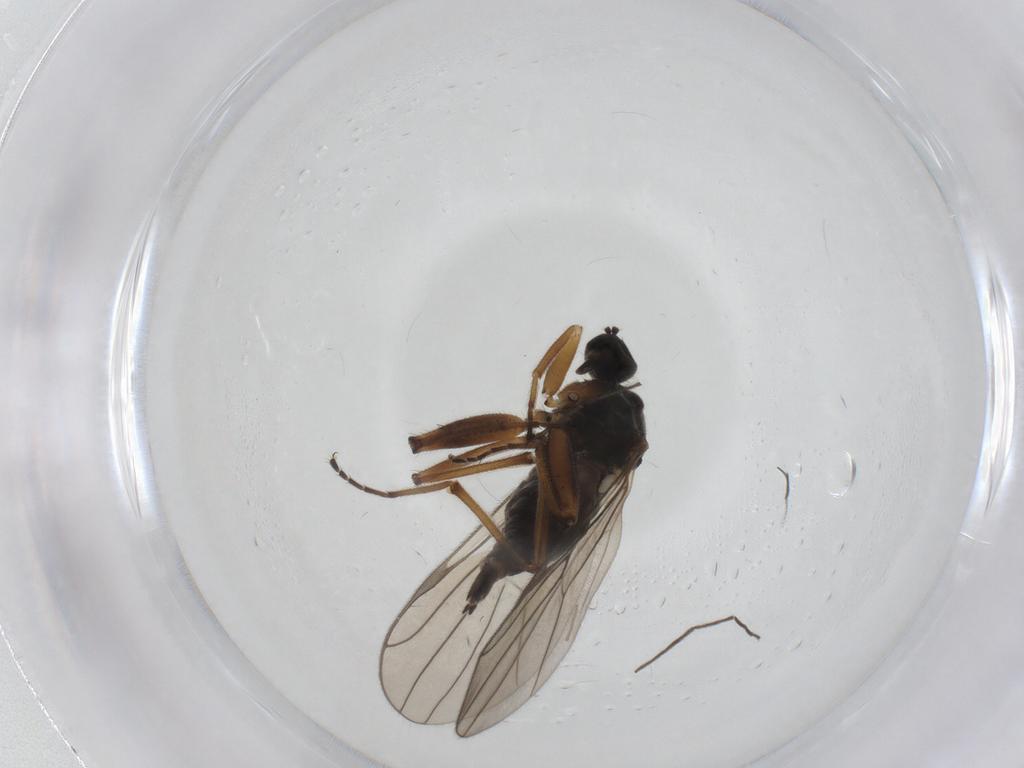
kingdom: Animalia
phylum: Arthropoda
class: Insecta
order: Diptera
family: Hybotidae
